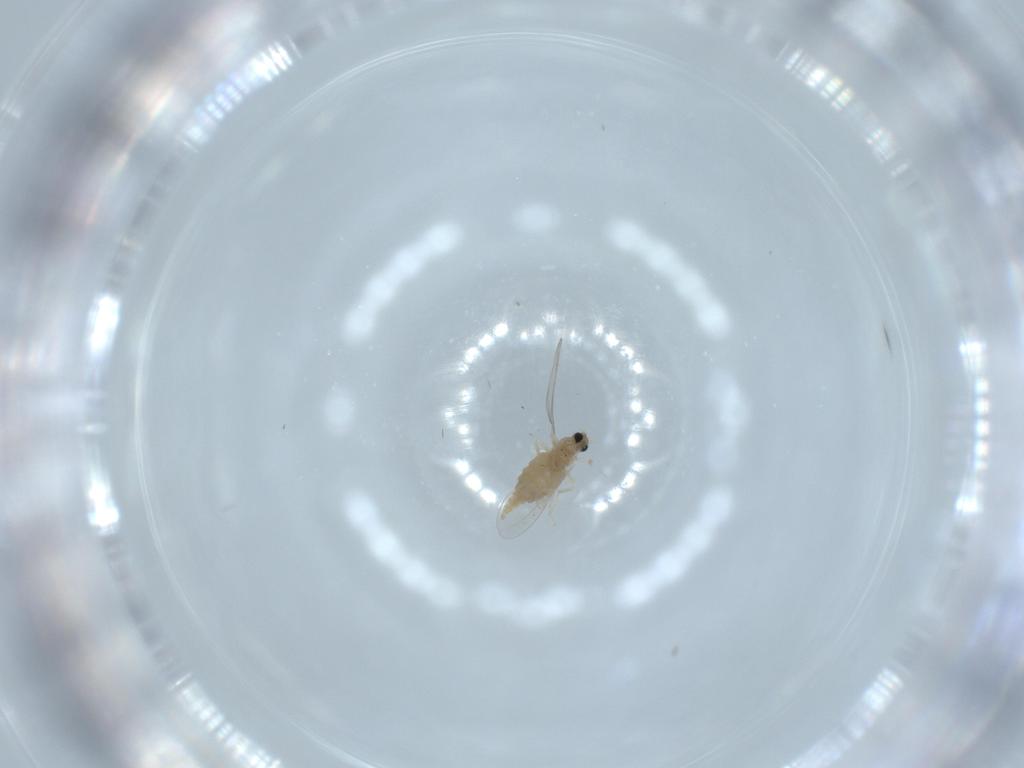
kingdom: Animalia
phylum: Arthropoda
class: Insecta
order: Diptera
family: Cecidomyiidae
